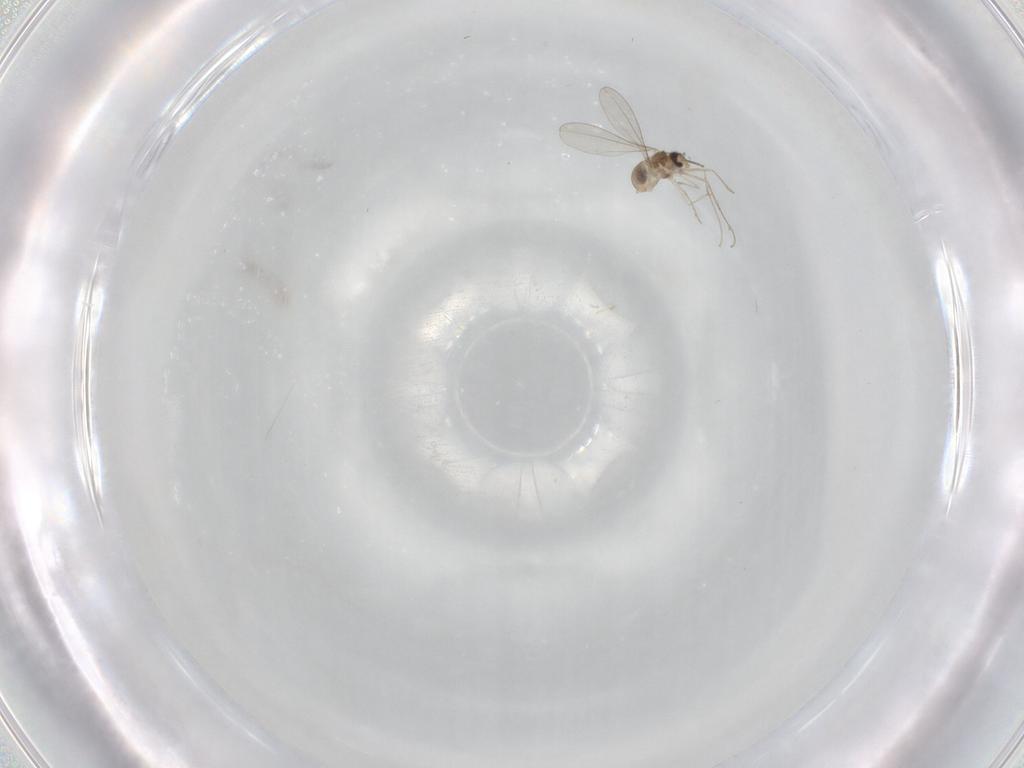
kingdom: Animalia
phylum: Arthropoda
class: Insecta
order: Diptera
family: Cecidomyiidae
